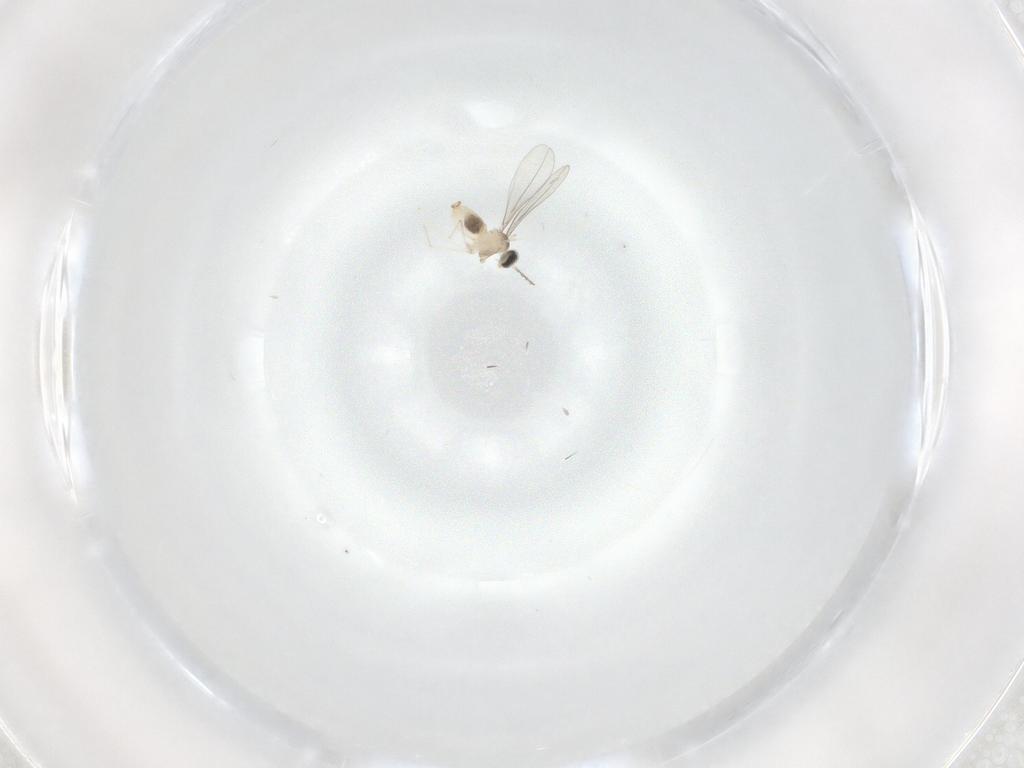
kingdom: Animalia
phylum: Arthropoda
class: Insecta
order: Diptera
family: Cecidomyiidae
